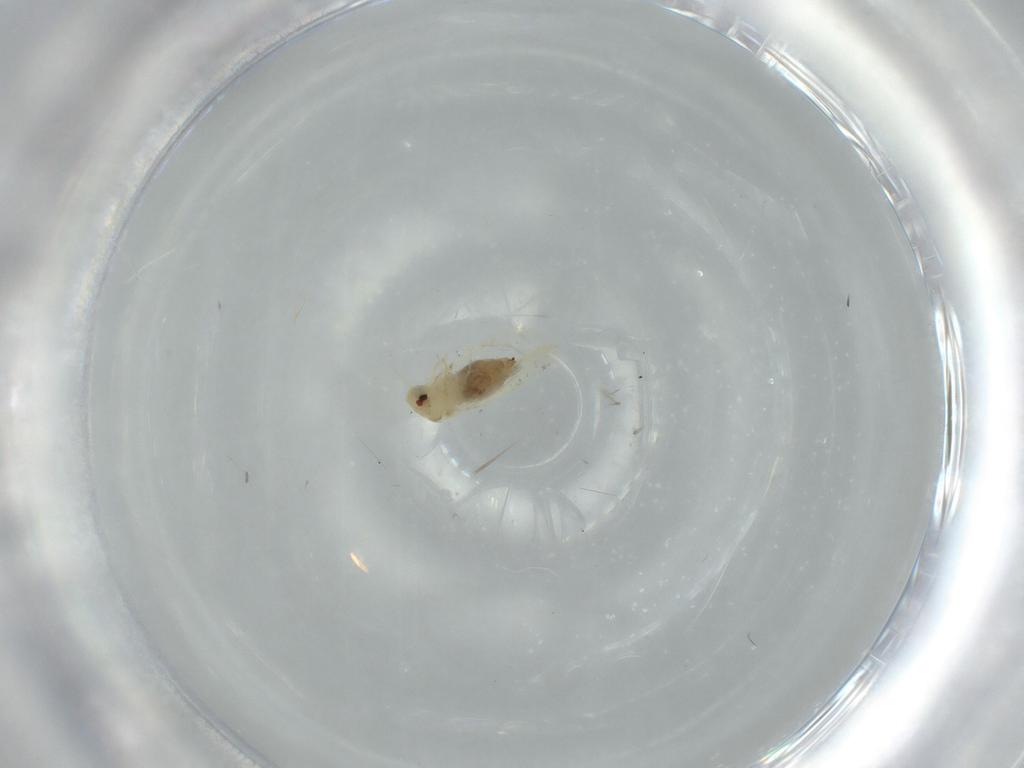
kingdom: Animalia
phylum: Arthropoda
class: Insecta
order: Hemiptera
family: Aleyrodidae
